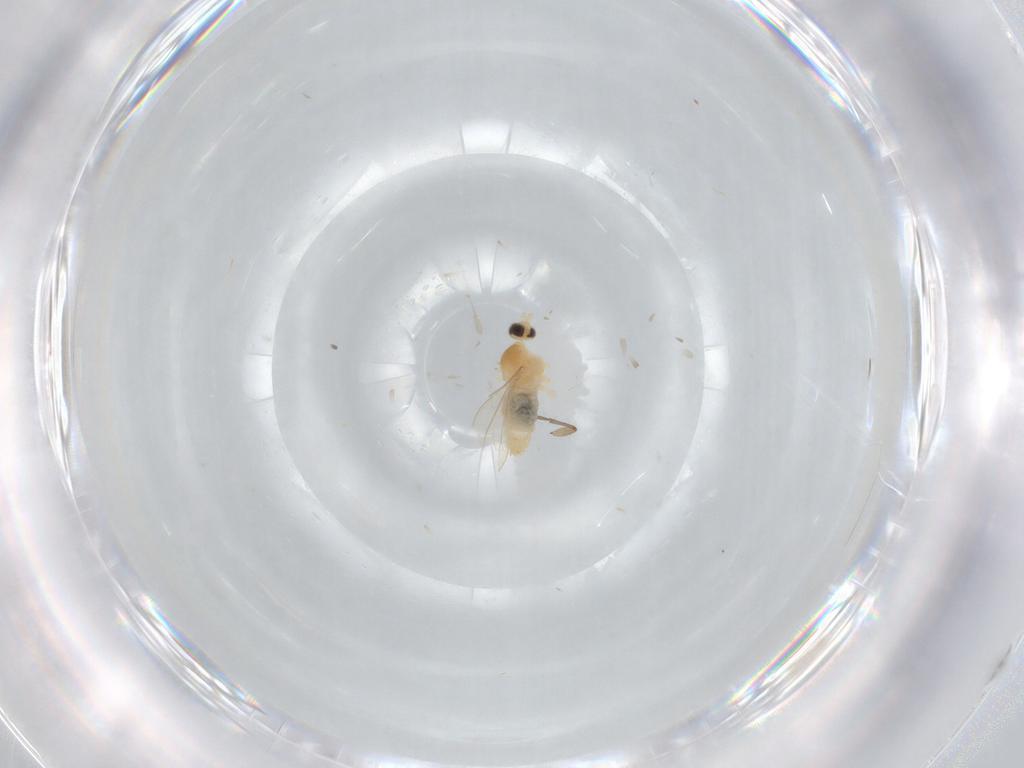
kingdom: Animalia
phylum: Arthropoda
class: Insecta
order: Diptera
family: Cecidomyiidae
